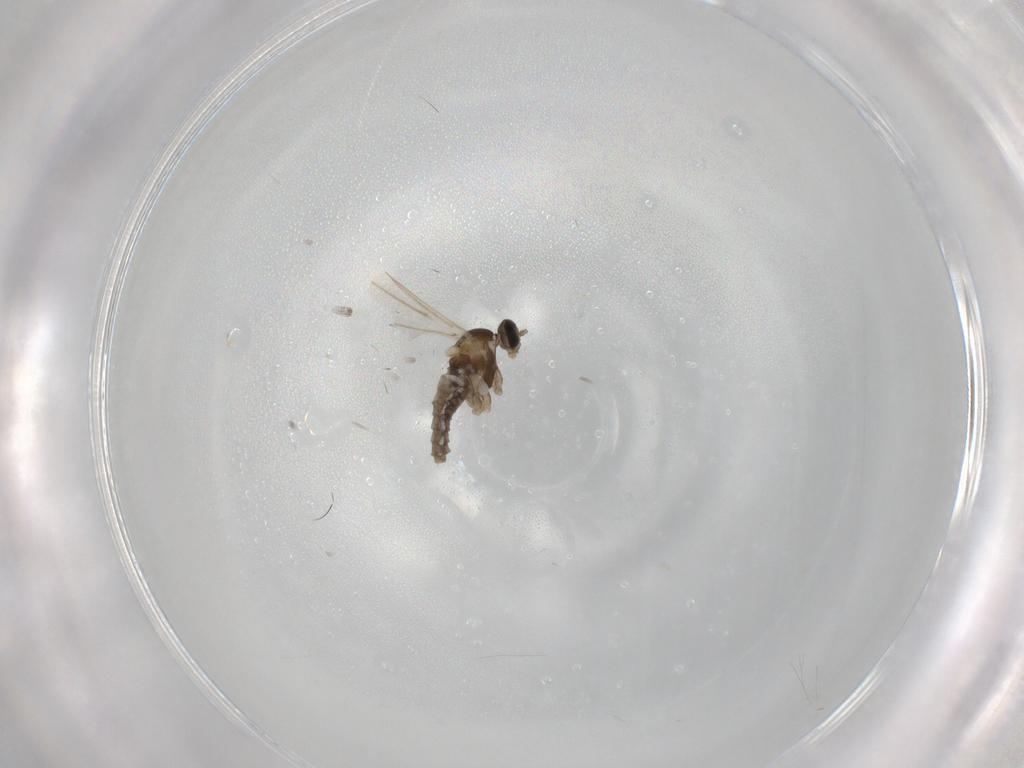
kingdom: Animalia
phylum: Arthropoda
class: Insecta
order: Diptera
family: Cecidomyiidae
